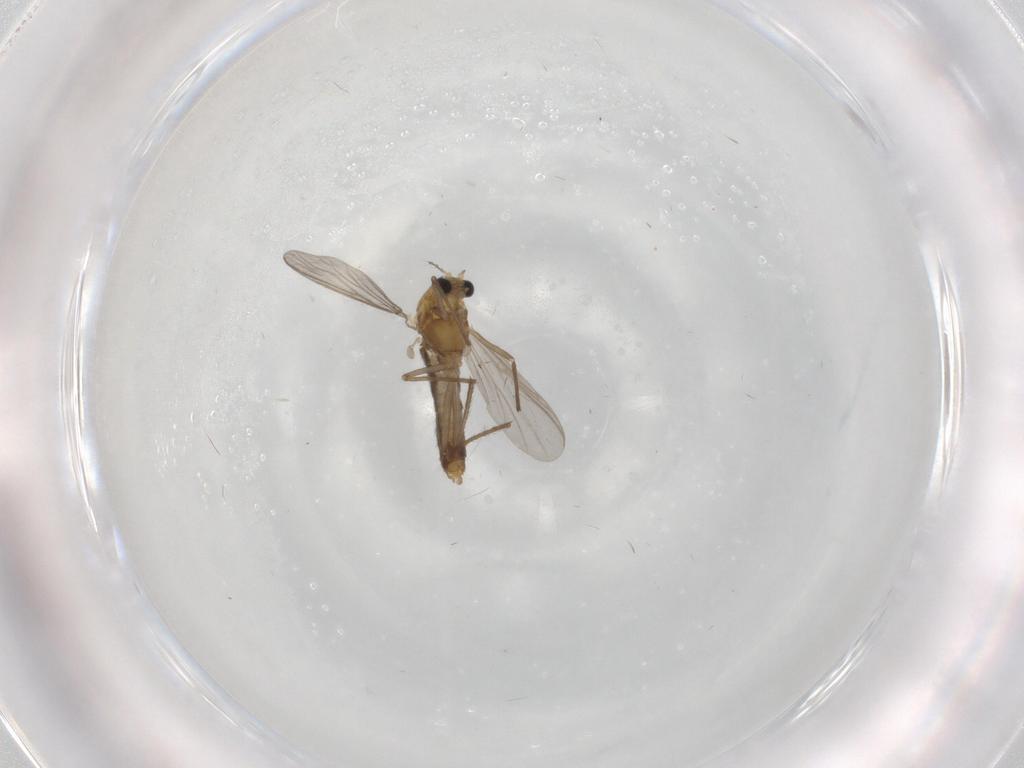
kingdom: Animalia
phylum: Arthropoda
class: Insecta
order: Diptera
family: Chironomidae
